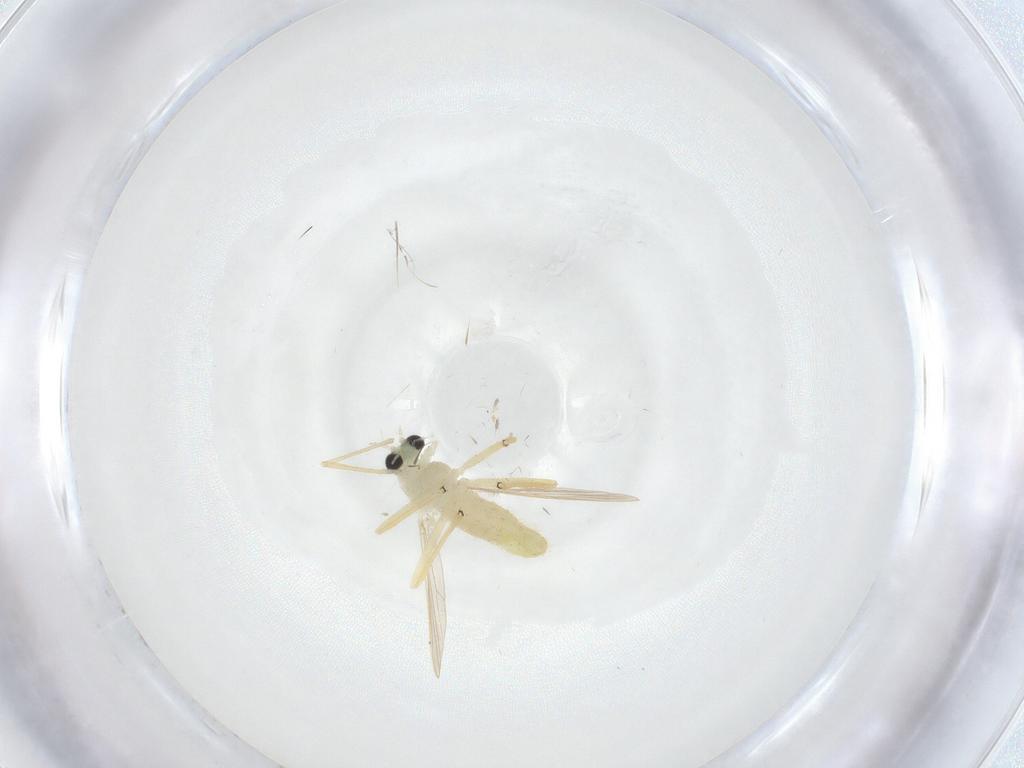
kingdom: Animalia
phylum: Arthropoda
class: Insecta
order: Diptera
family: Chironomidae
